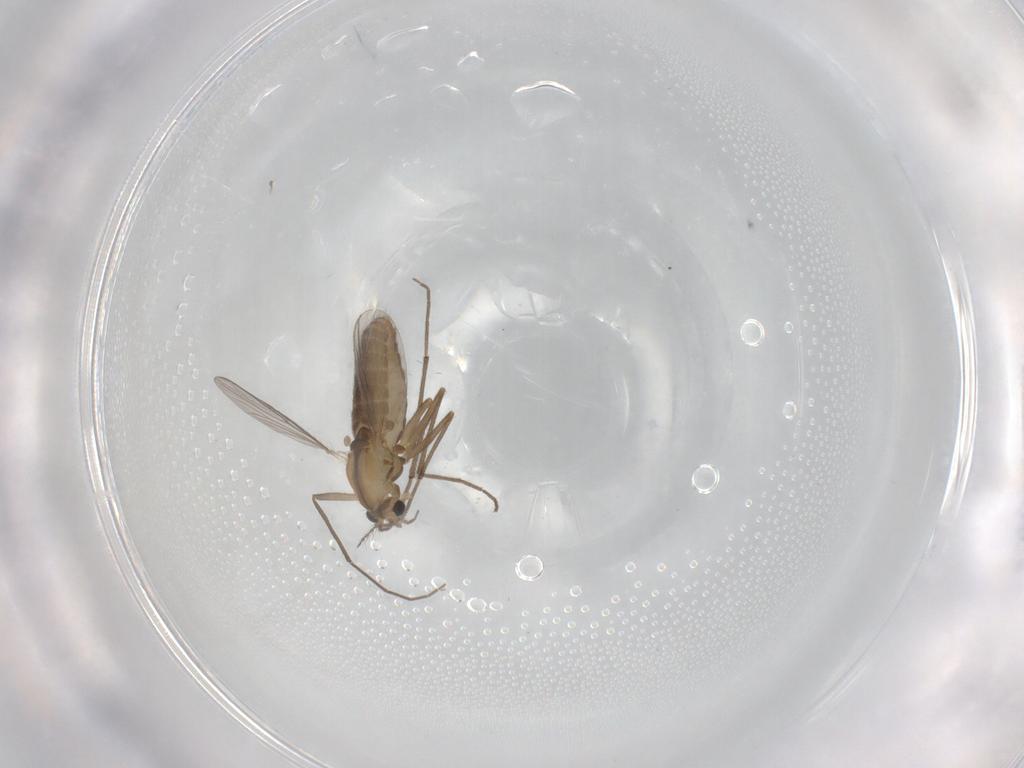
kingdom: Animalia
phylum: Arthropoda
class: Insecta
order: Diptera
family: Chironomidae
